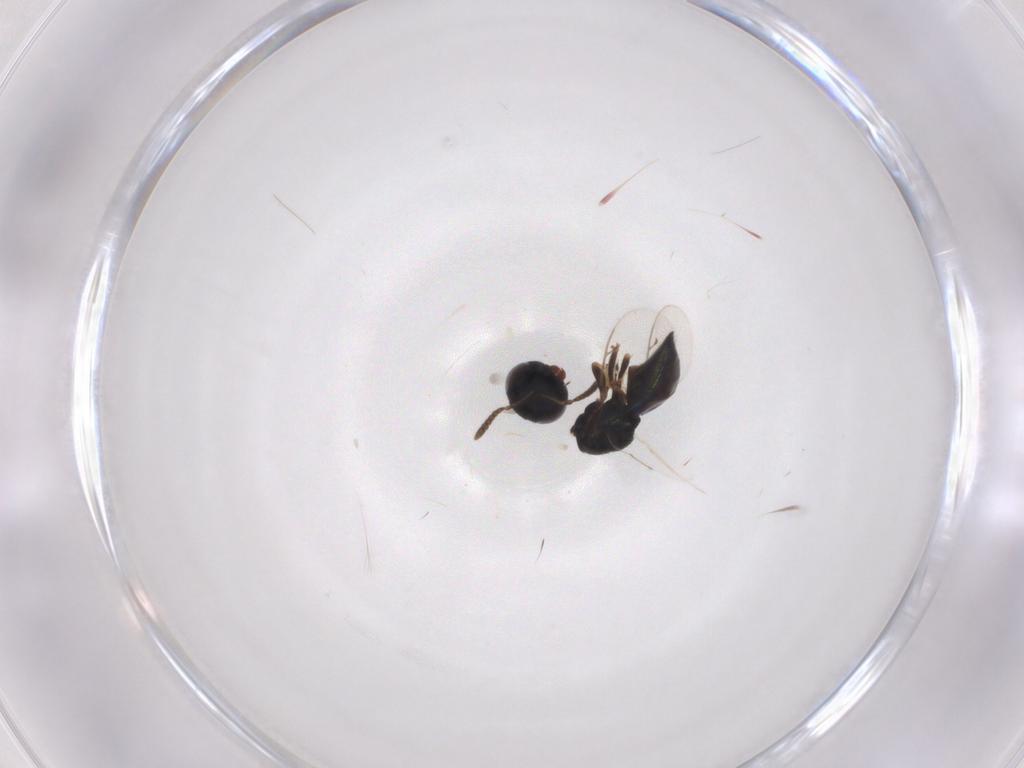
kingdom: Animalia
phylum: Arthropoda
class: Insecta
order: Hymenoptera
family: Pteromalidae
